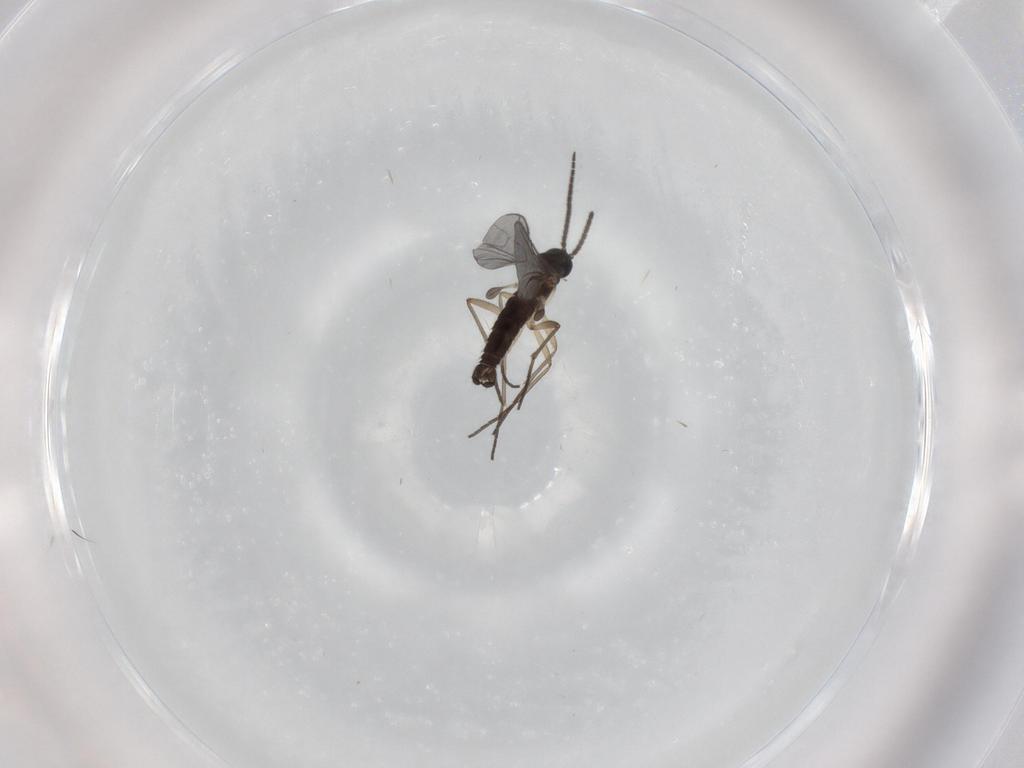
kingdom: Animalia
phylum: Arthropoda
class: Insecta
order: Diptera
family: Sciaridae
